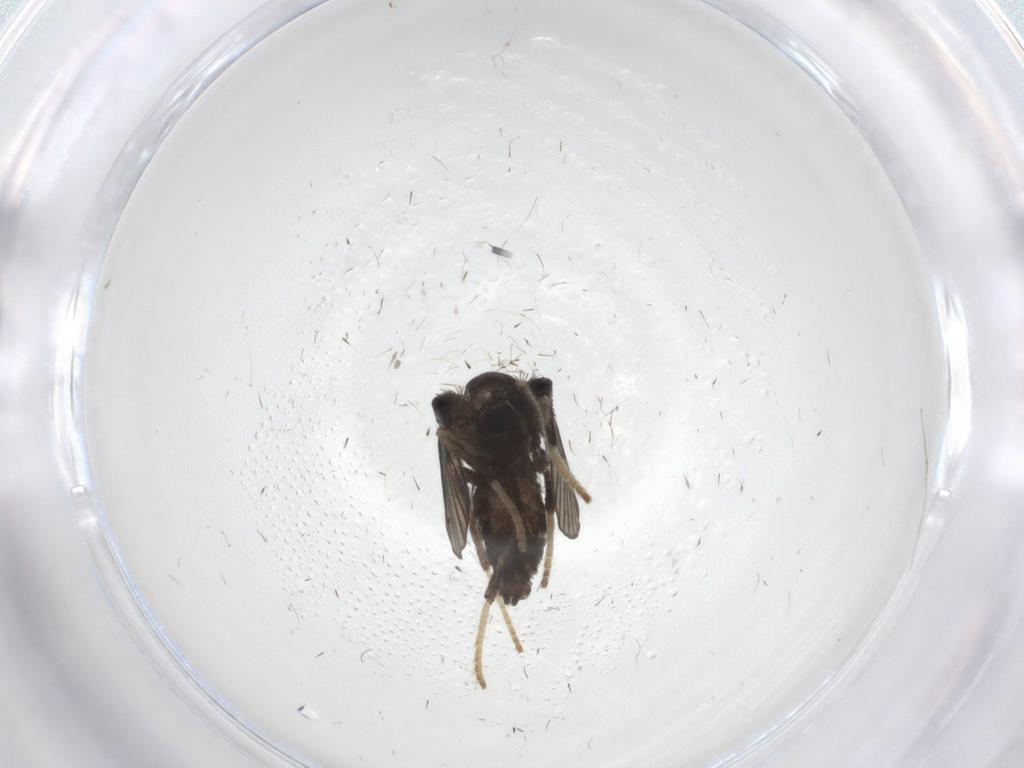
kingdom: Animalia
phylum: Arthropoda
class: Insecta
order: Diptera
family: Psychodidae
